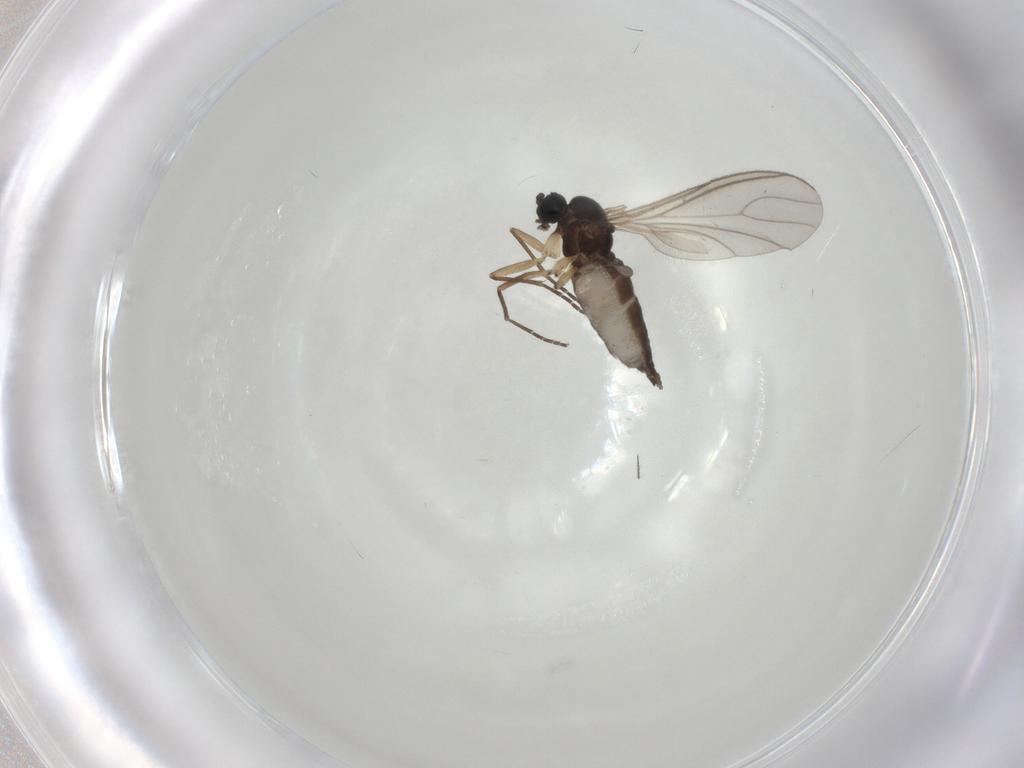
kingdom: Animalia
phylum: Arthropoda
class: Insecta
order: Diptera
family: Sciaridae
